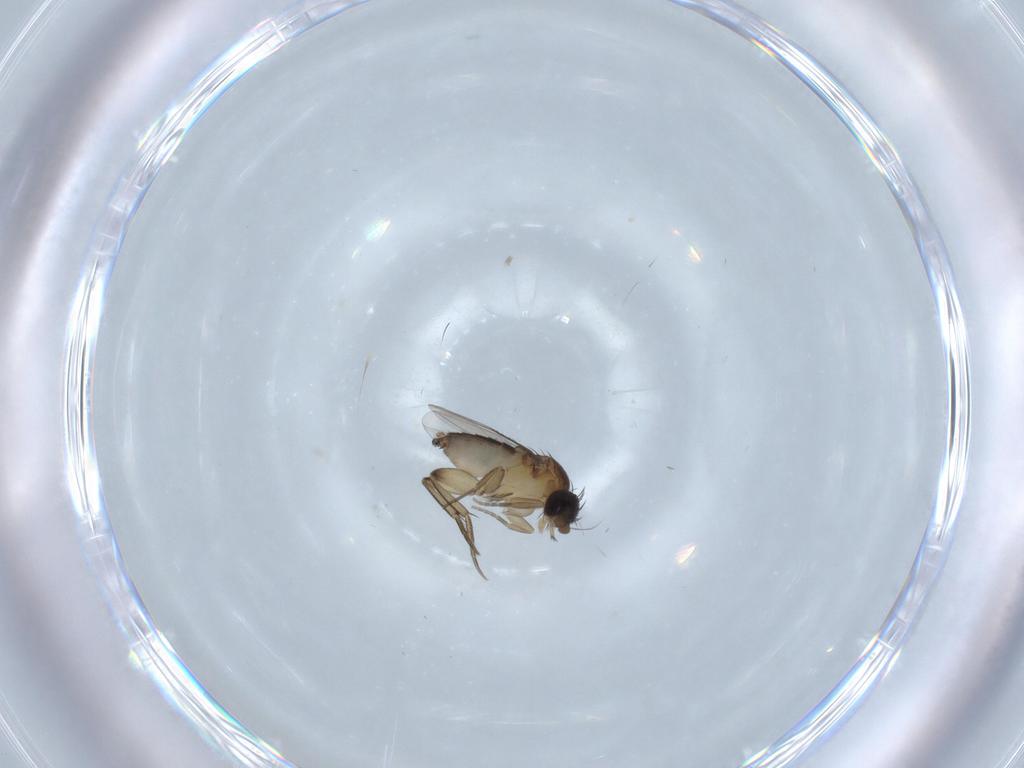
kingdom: Animalia
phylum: Arthropoda
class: Insecta
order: Diptera
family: Phoridae
